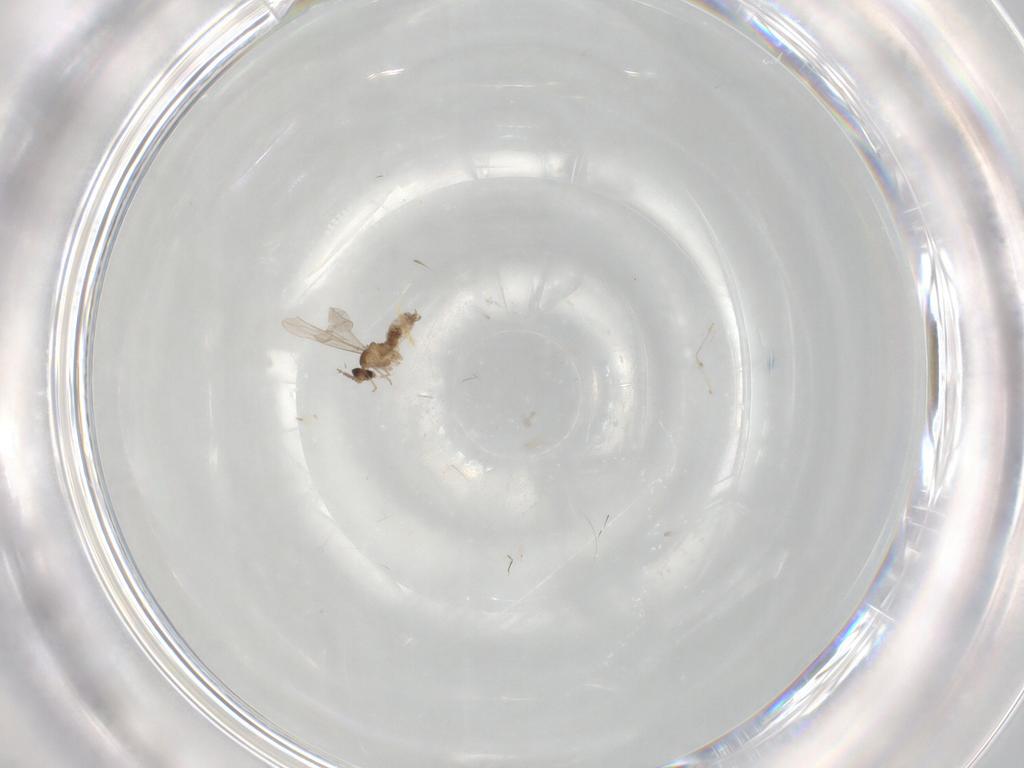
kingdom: Animalia
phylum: Arthropoda
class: Insecta
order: Diptera
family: Cecidomyiidae
